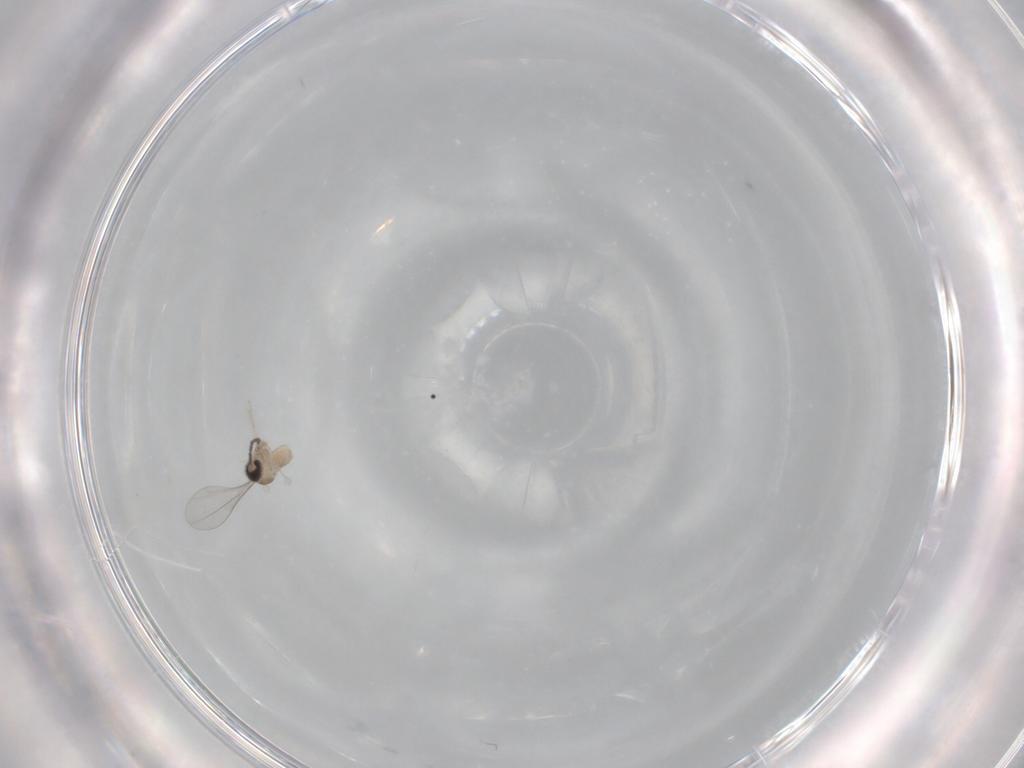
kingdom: Animalia
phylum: Arthropoda
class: Insecta
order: Diptera
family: Cecidomyiidae
